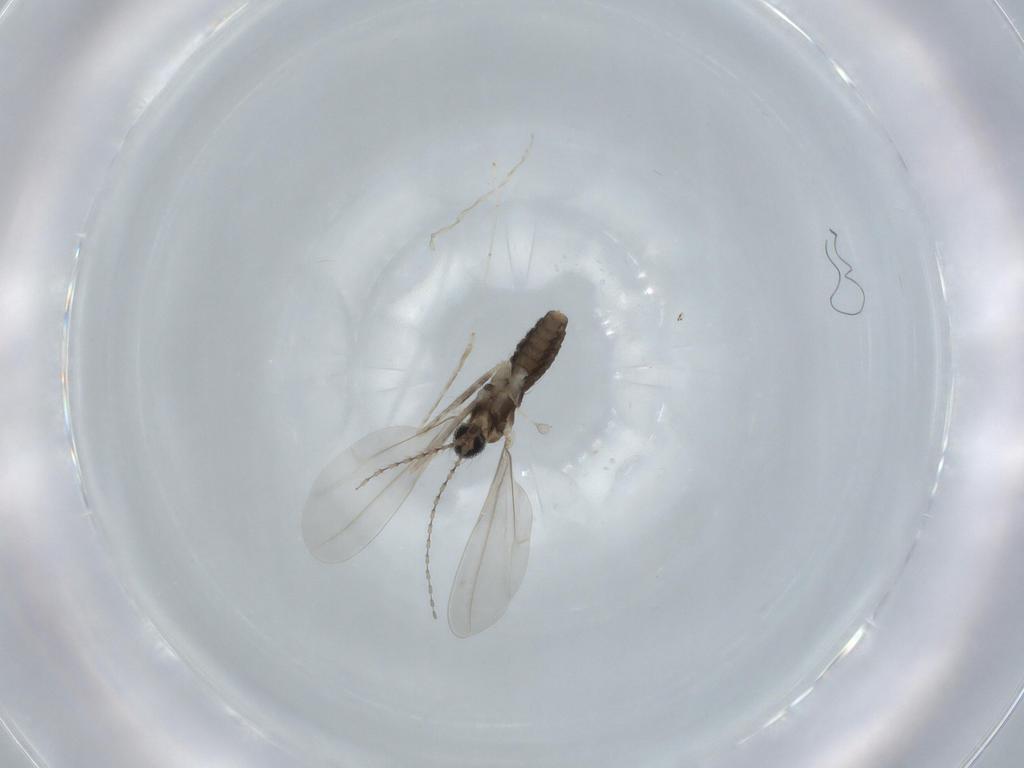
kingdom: Animalia
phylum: Arthropoda
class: Insecta
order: Diptera
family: Cecidomyiidae
